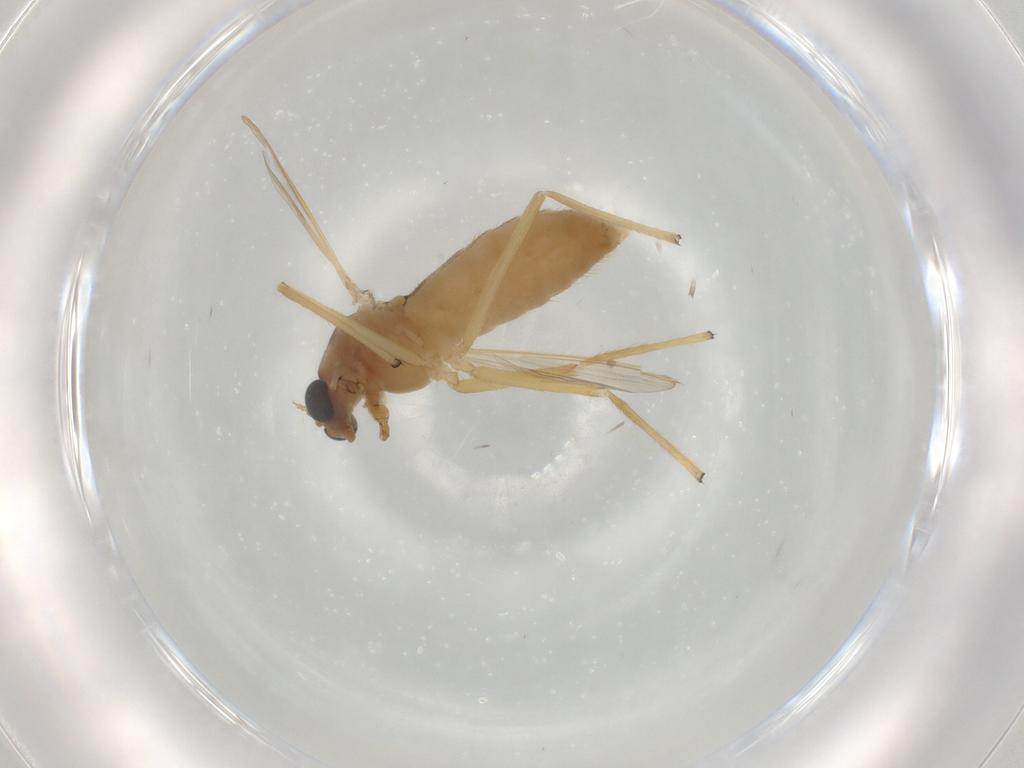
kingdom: Animalia
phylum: Arthropoda
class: Insecta
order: Diptera
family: Chironomidae
